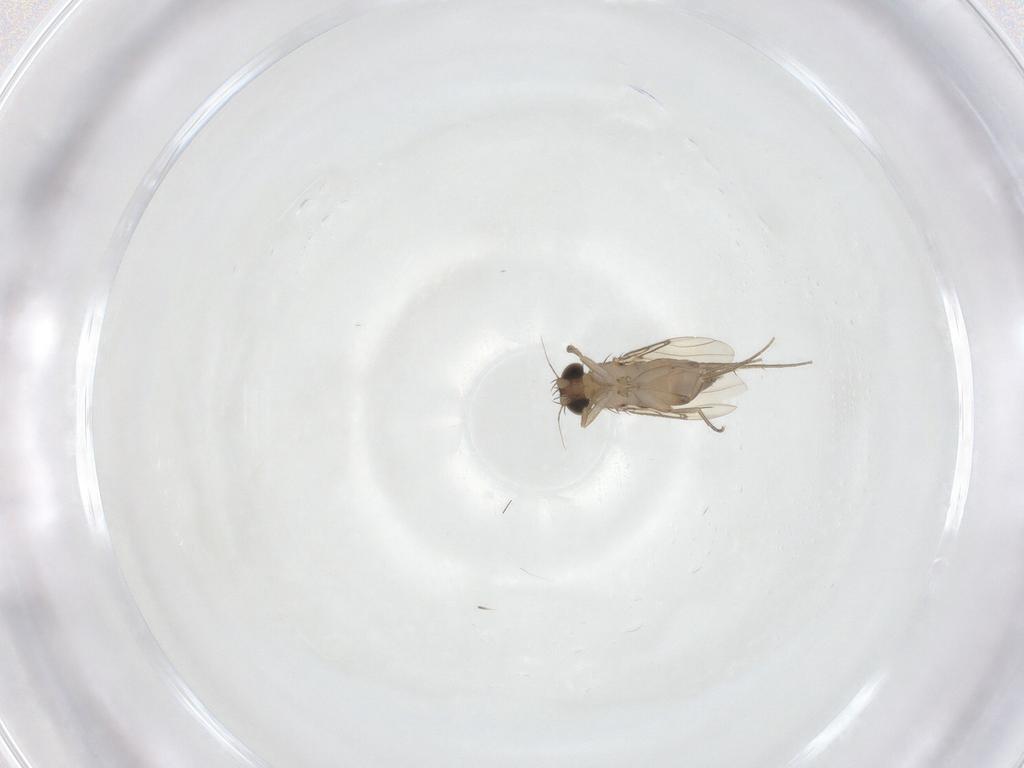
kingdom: Animalia
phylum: Arthropoda
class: Insecta
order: Diptera
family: Phoridae
